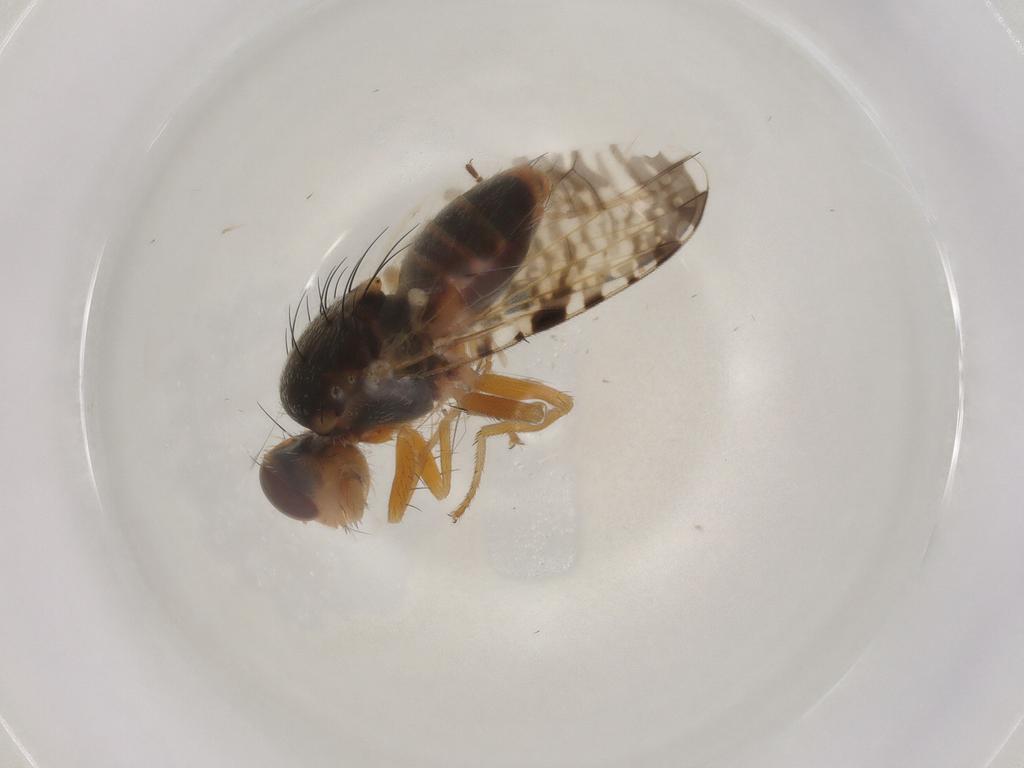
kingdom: Animalia
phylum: Arthropoda
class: Insecta
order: Diptera
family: Tephritidae
